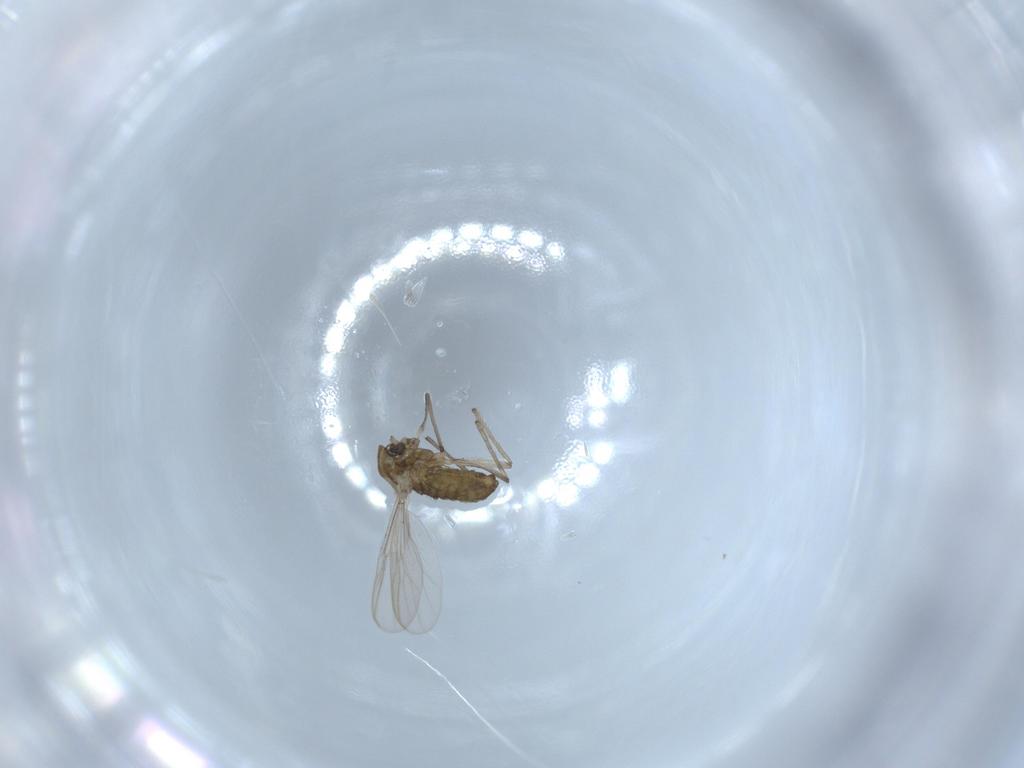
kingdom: Animalia
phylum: Arthropoda
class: Insecta
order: Diptera
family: Chironomidae
